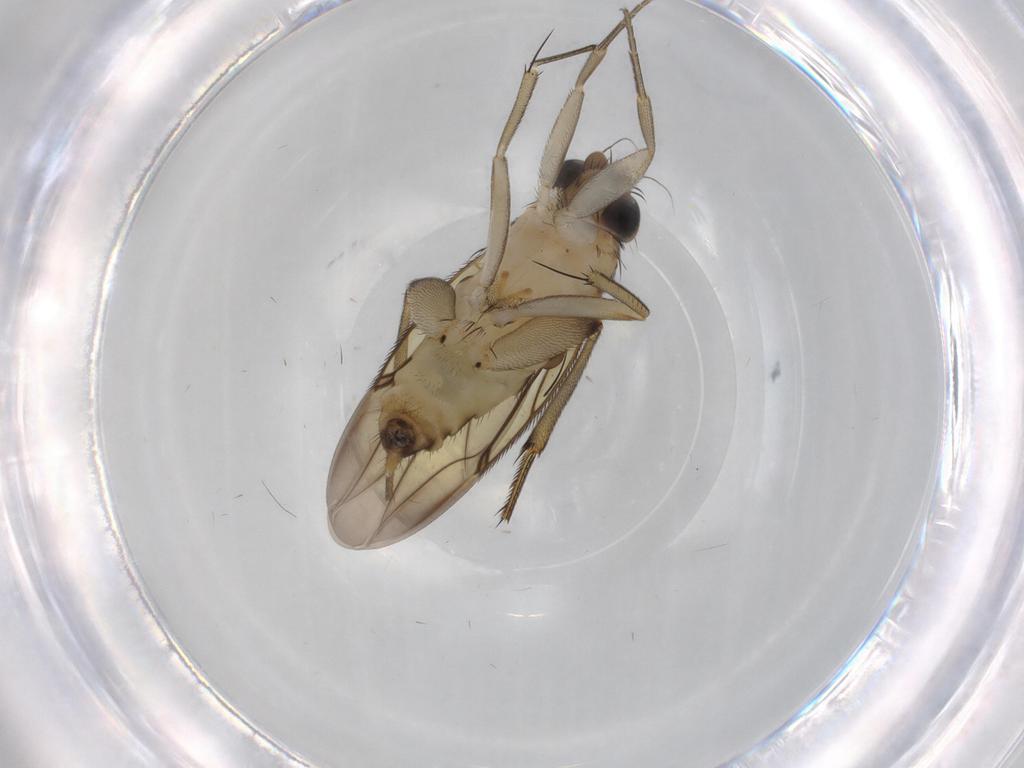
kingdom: Animalia
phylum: Arthropoda
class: Insecta
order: Diptera
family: Phoridae
